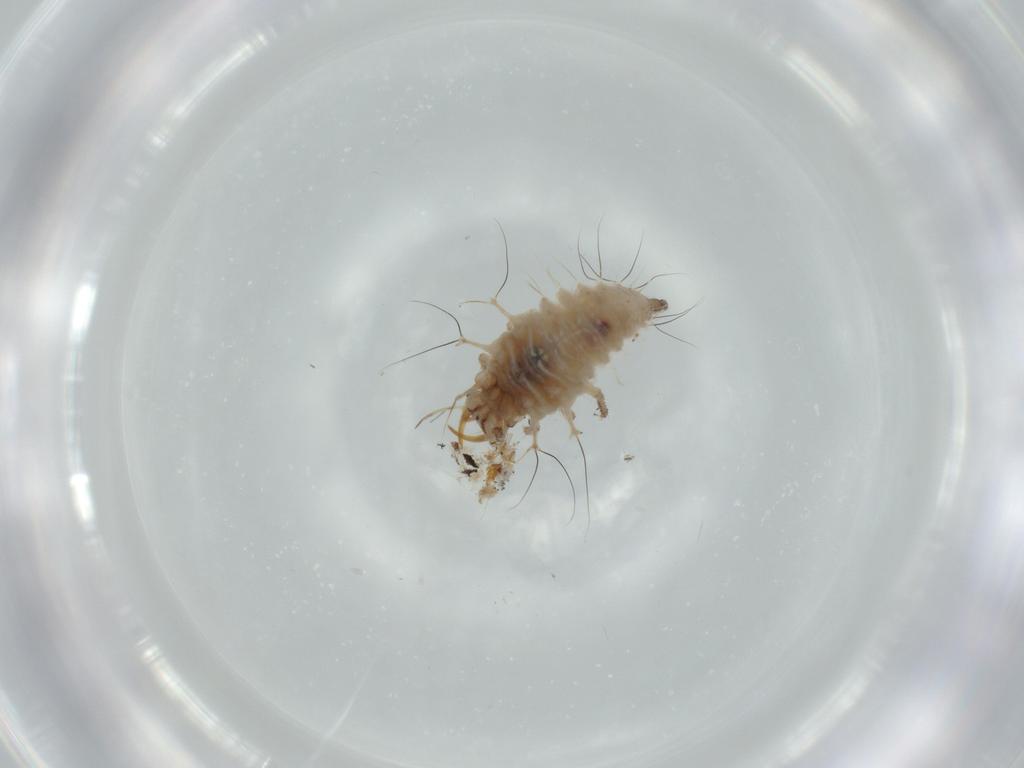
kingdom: Animalia
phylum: Arthropoda
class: Insecta
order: Neuroptera
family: Chrysopidae
